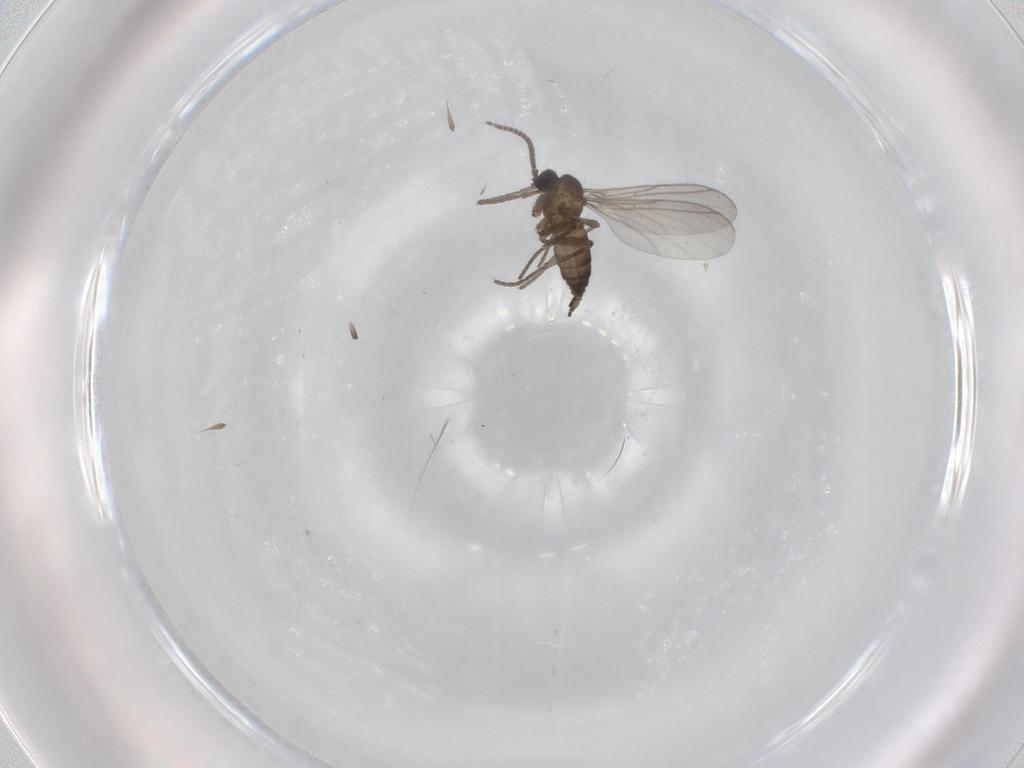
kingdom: Animalia
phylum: Arthropoda
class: Insecta
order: Diptera
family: Sciaridae
